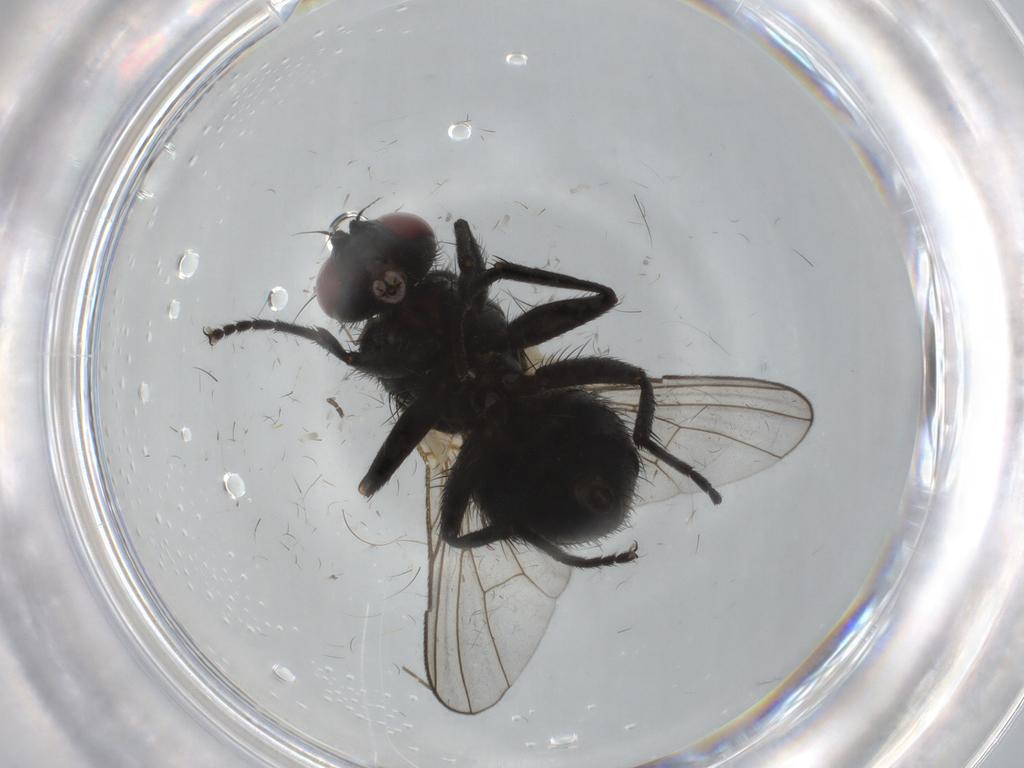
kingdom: Animalia
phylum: Arthropoda
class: Insecta
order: Diptera
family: Muscidae
